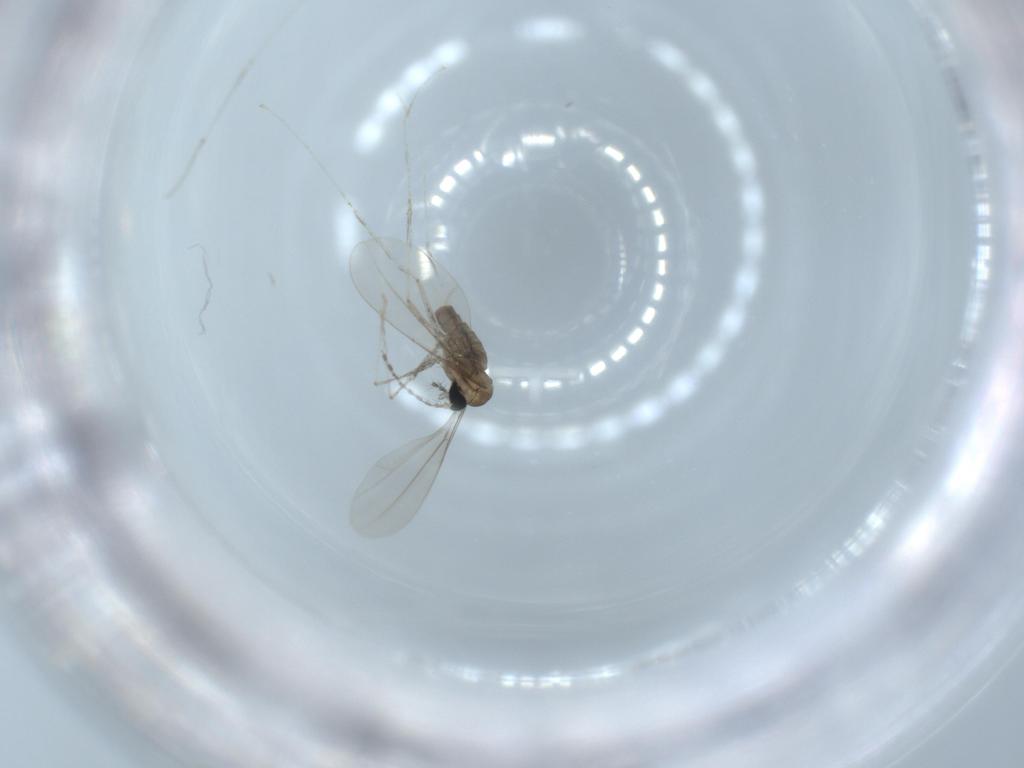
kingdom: Animalia
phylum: Arthropoda
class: Insecta
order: Diptera
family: Cecidomyiidae
